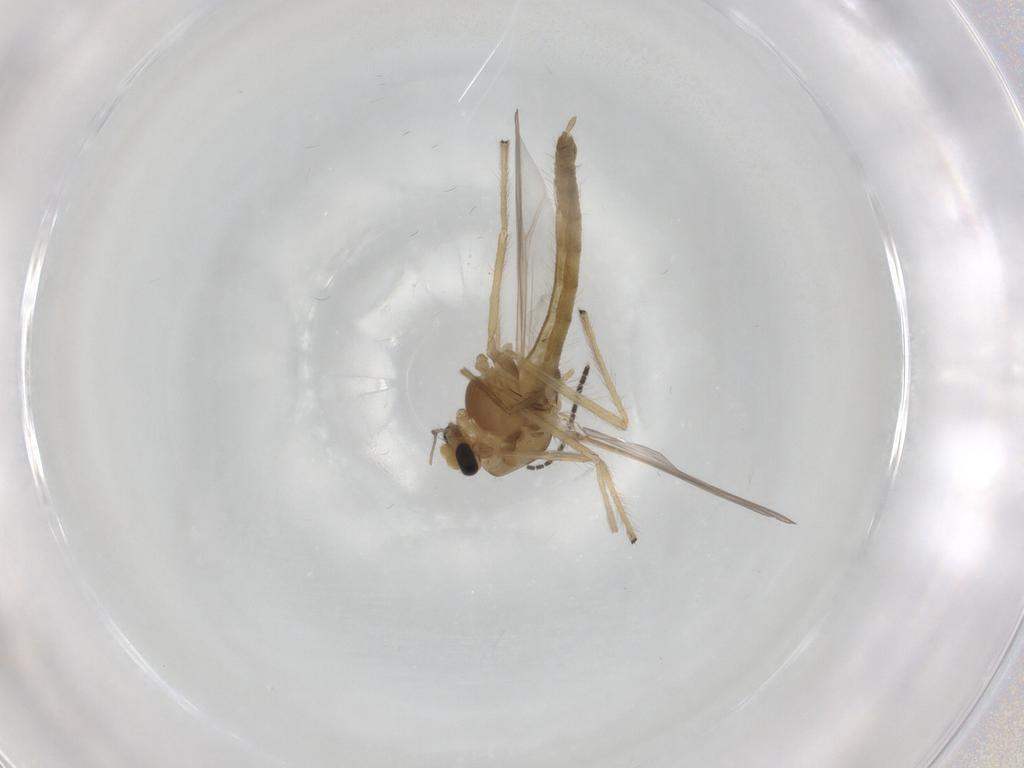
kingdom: Animalia
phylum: Arthropoda
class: Insecta
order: Diptera
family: Chironomidae
